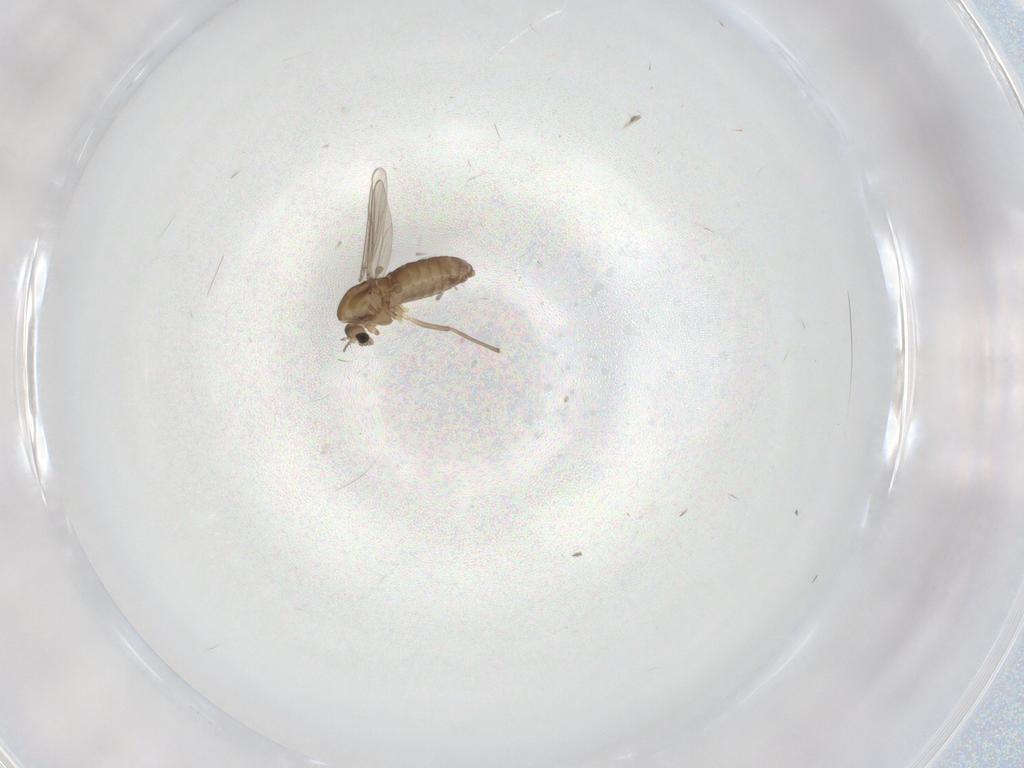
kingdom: Animalia
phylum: Arthropoda
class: Insecta
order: Diptera
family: Chironomidae
